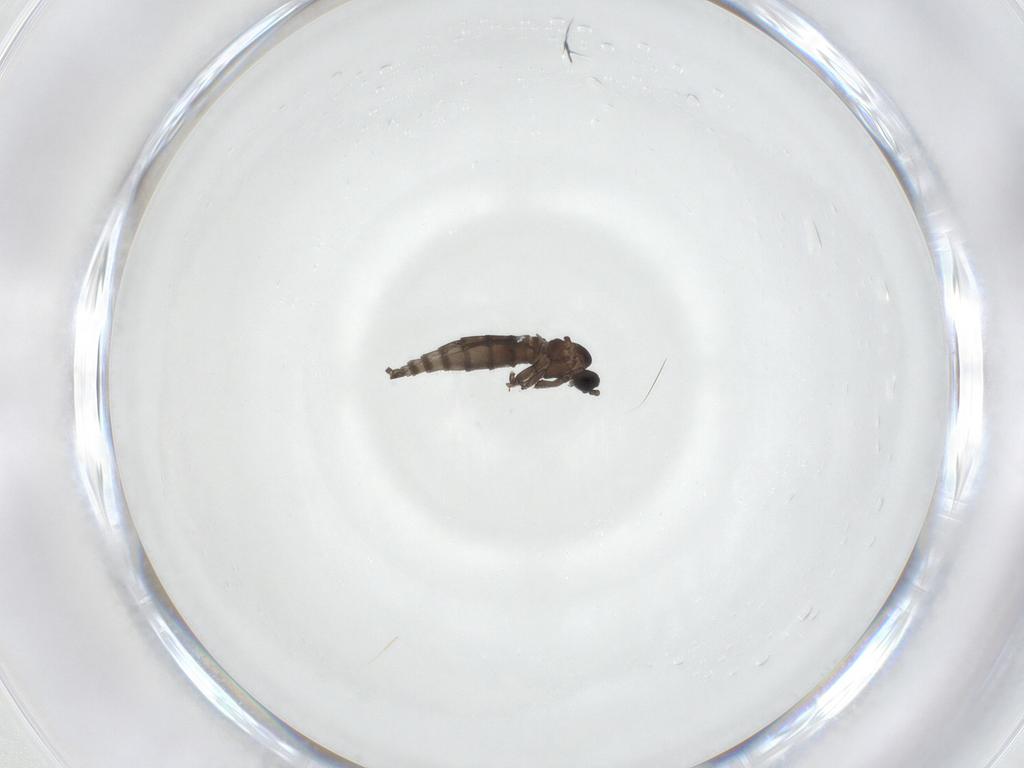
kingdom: Animalia
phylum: Arthropoda
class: Insecta
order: Diptera
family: Sciaridae
